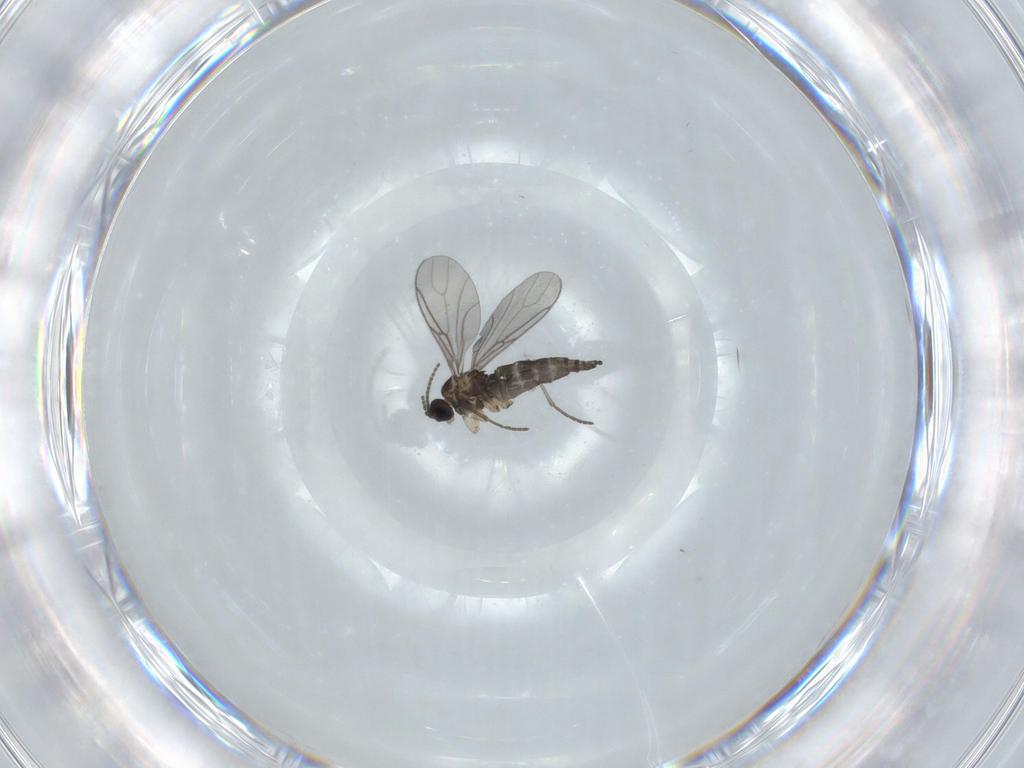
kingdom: Animalia
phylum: Arthropoda
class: Insecta
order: Diptera
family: Sciaridae
